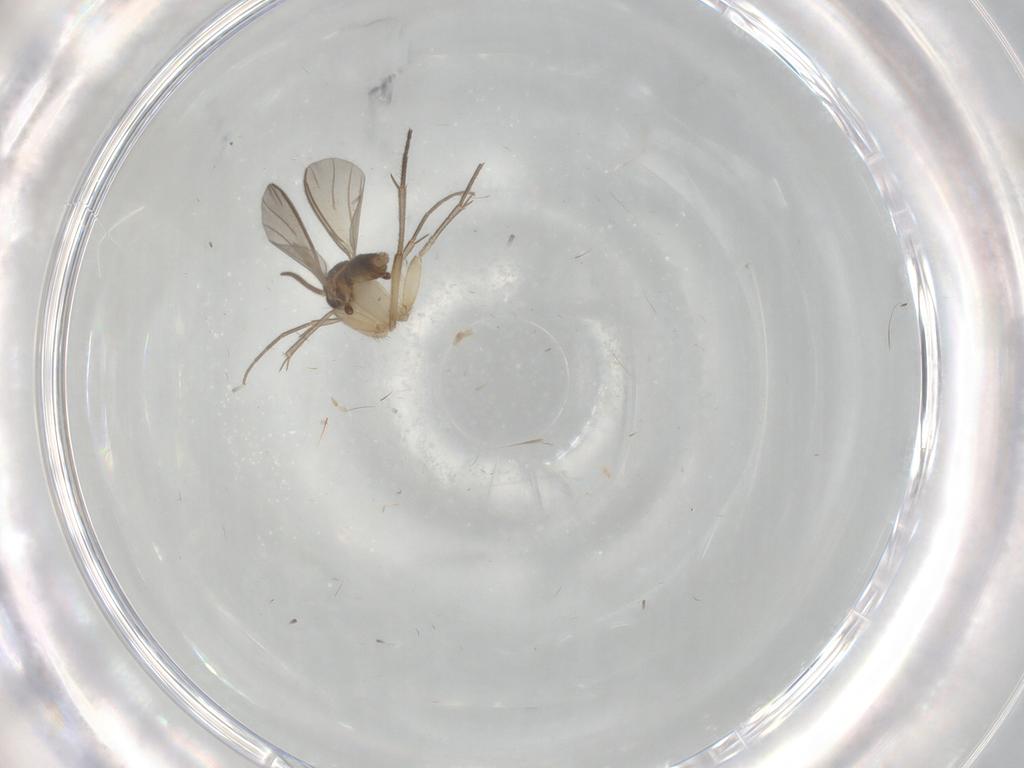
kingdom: Animalia
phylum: Arthropoda
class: Insecta
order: Diptera
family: Mycetophilidae
